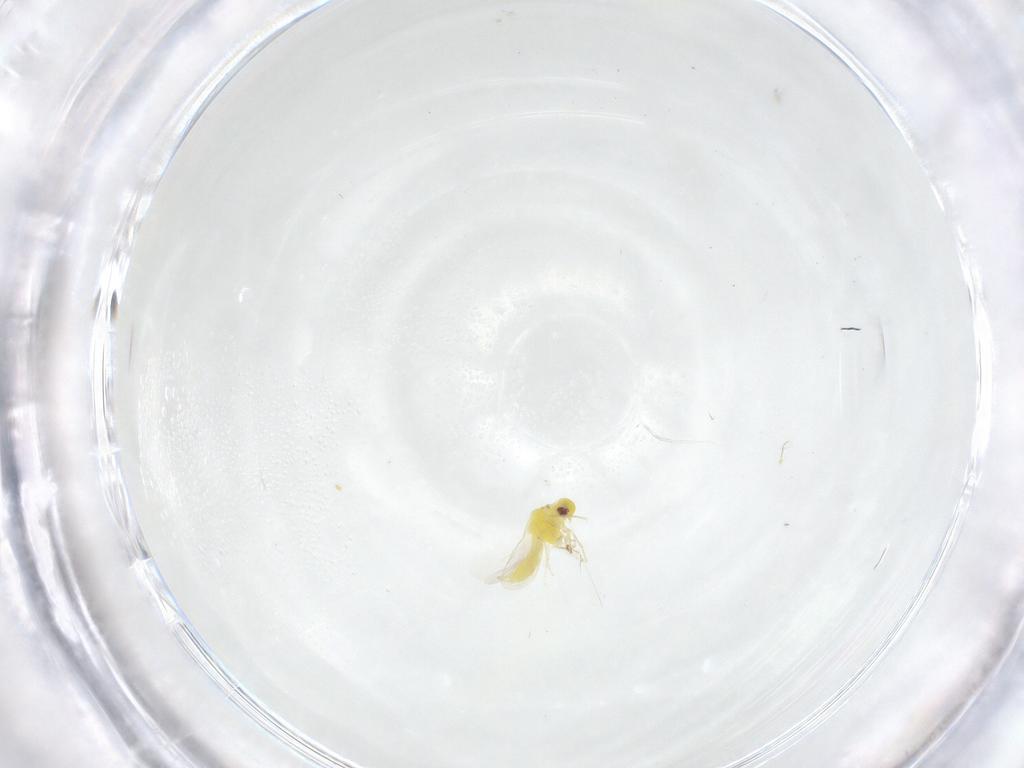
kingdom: Animalia
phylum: Arthropoda
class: Insecta
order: Hemiptera
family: Aleyrodidae
